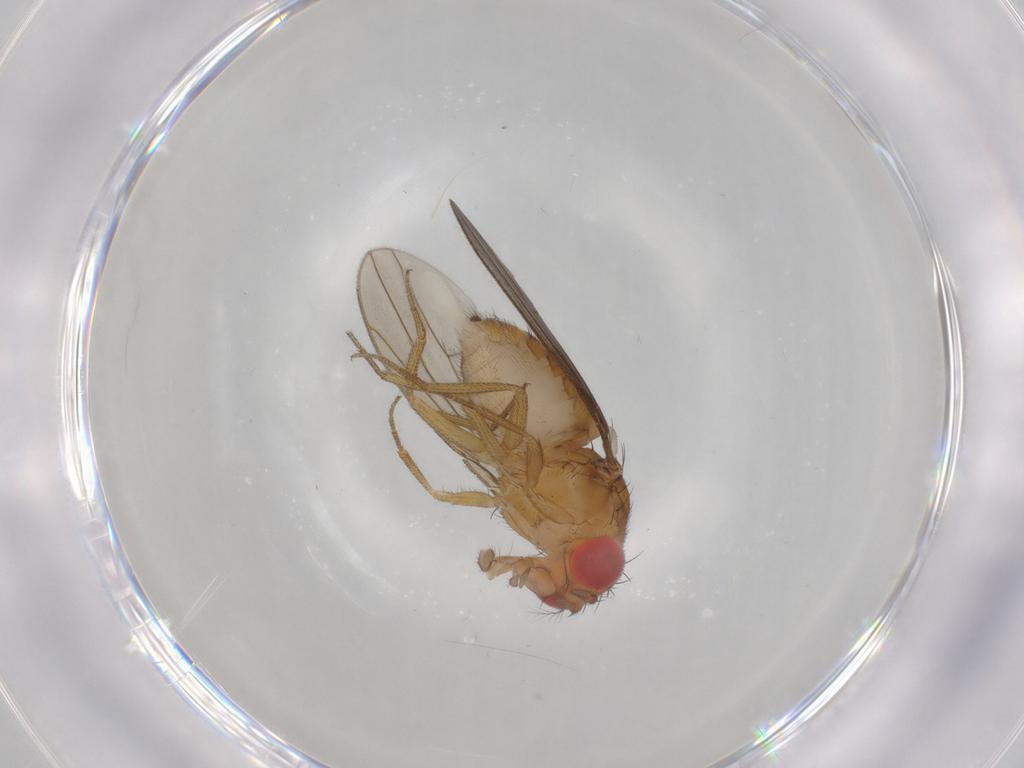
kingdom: Animalia
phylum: Arthropoda
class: Insecta
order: Diptera
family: Drosophilidae
